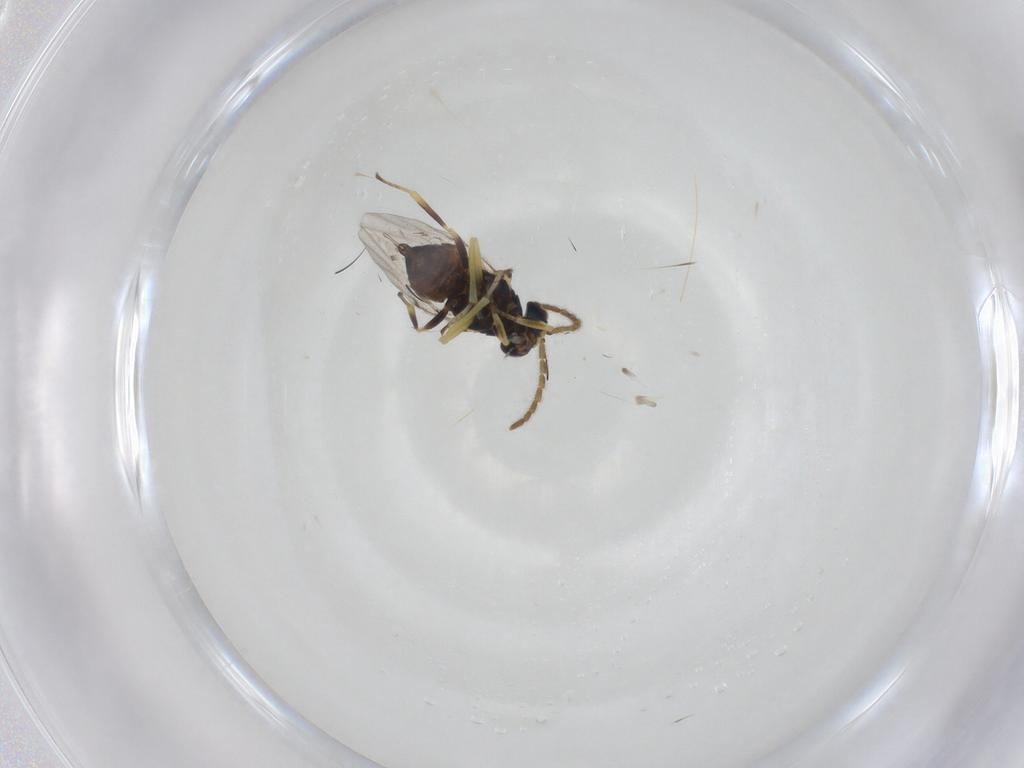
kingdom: Animalia
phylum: Arthropoda
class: Insecta
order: Hymenoptera
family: Encyrtidae
